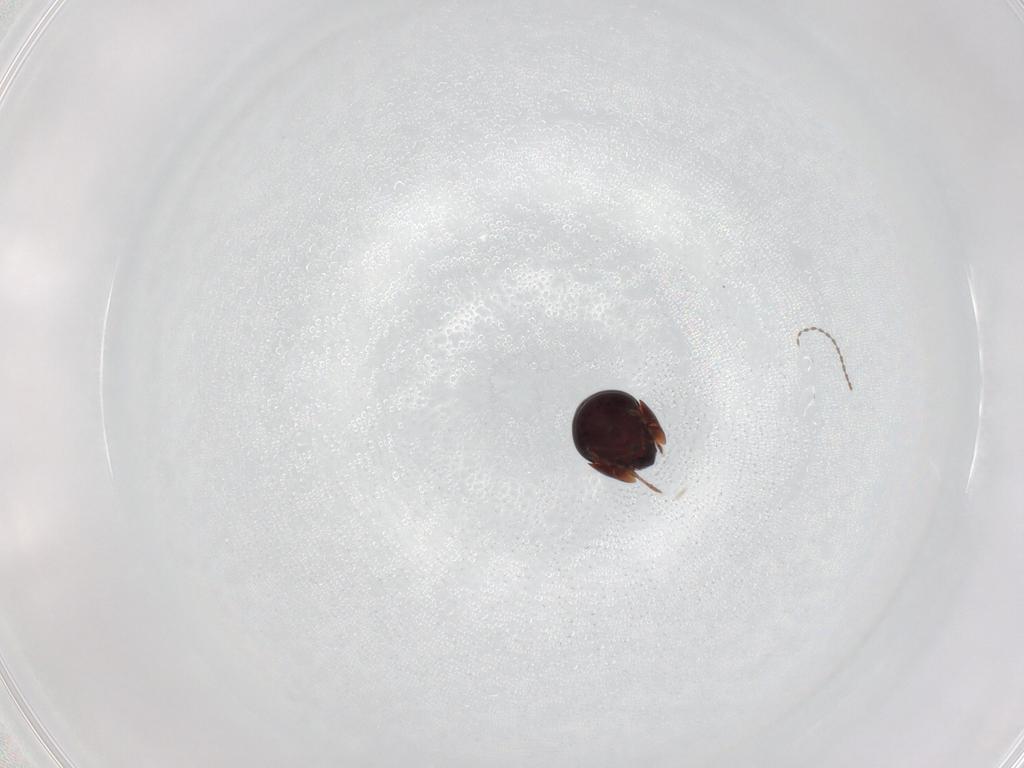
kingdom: Animalia
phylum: Arthropoda
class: Arachnida
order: Sarcoptiformes
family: Galumnidae
